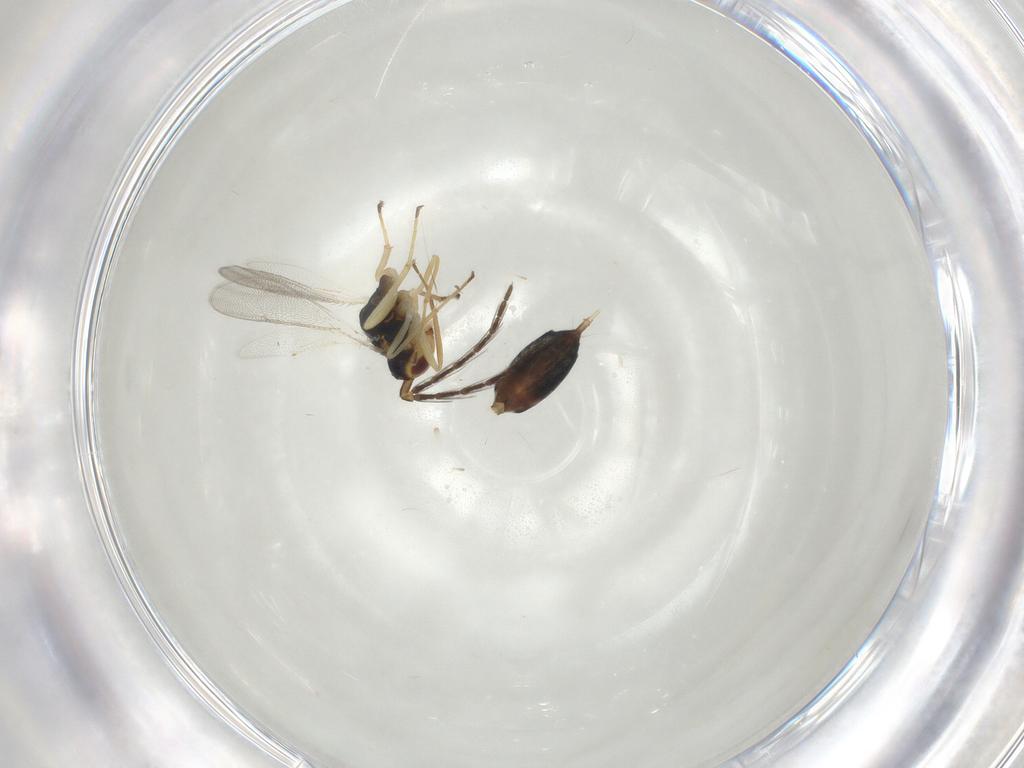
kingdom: Animalia
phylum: Arthropoda
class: Insecta
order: Hymenoptera
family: Eulophidae
